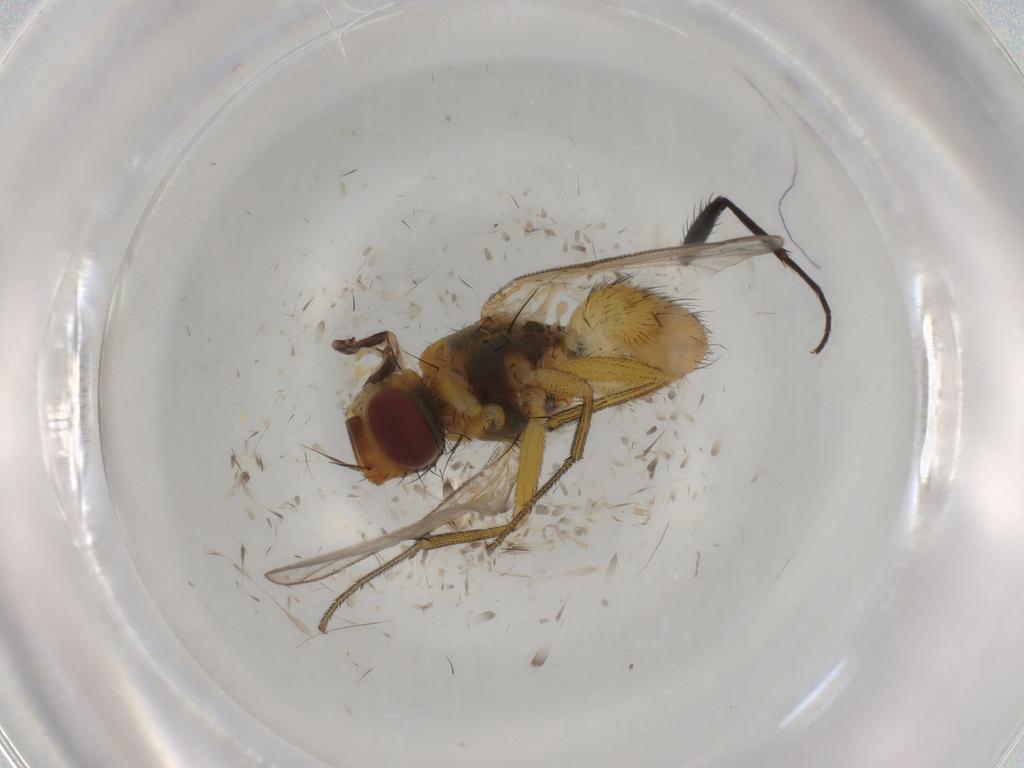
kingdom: Animalia
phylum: Arthropoda
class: Insecta
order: Diptera
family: Muscidae
